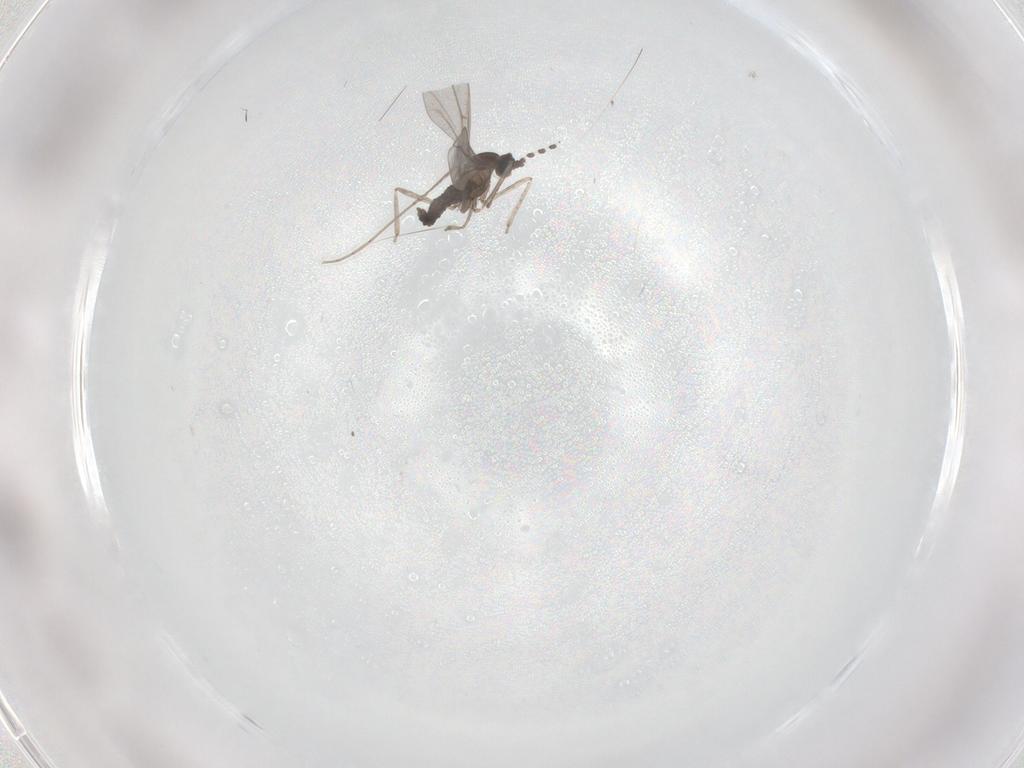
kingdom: Animalia
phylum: Arthropoda
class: Insecta
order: Diptera
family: Cecidomyiidae
